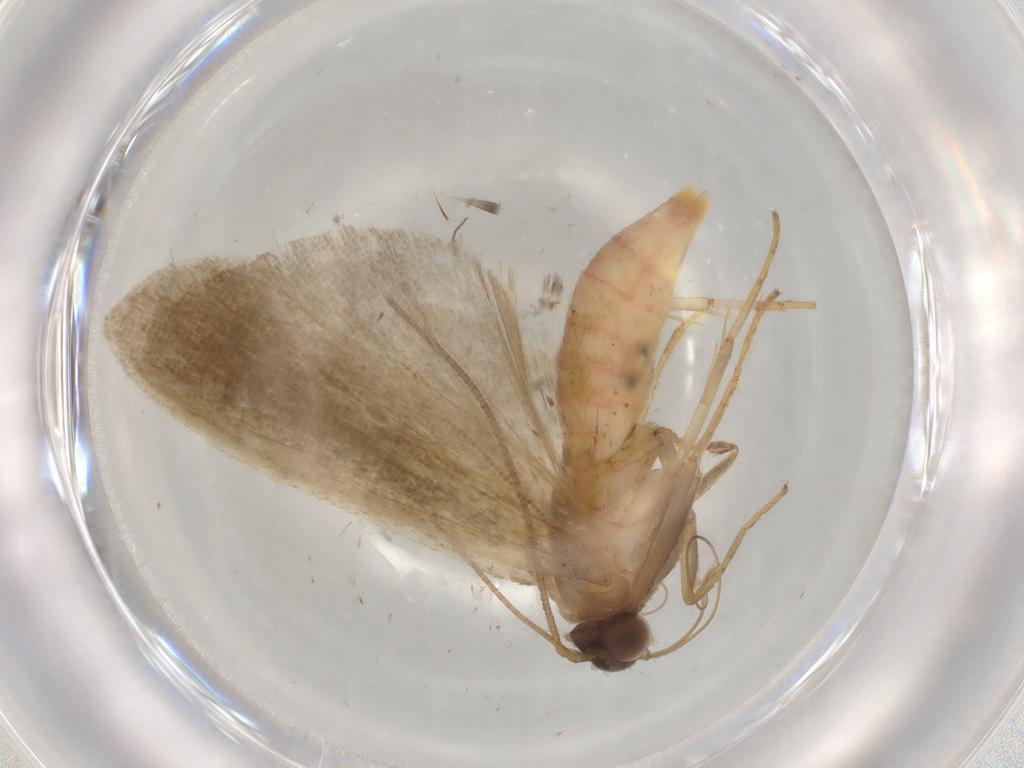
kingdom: Animalia
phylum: Arthropoda
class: Insecta
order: Lepidoptera
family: Noctuidae
